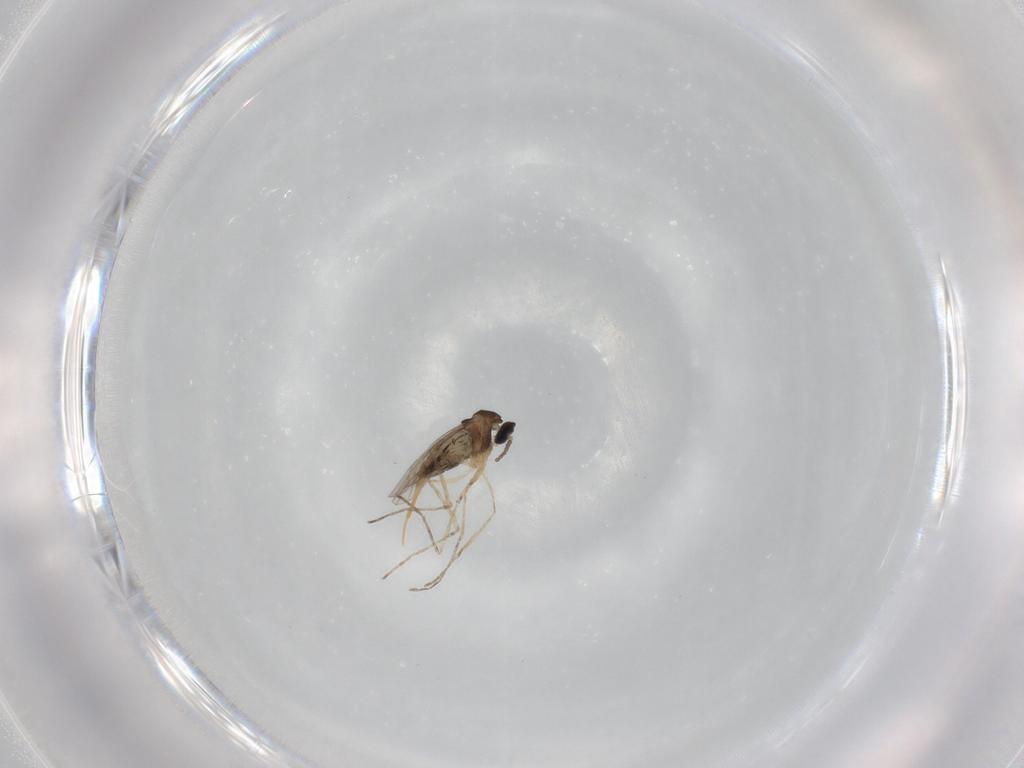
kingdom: Animalia
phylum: Arthropoda
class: Insecta
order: Diptera
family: Cecidomyiidae
